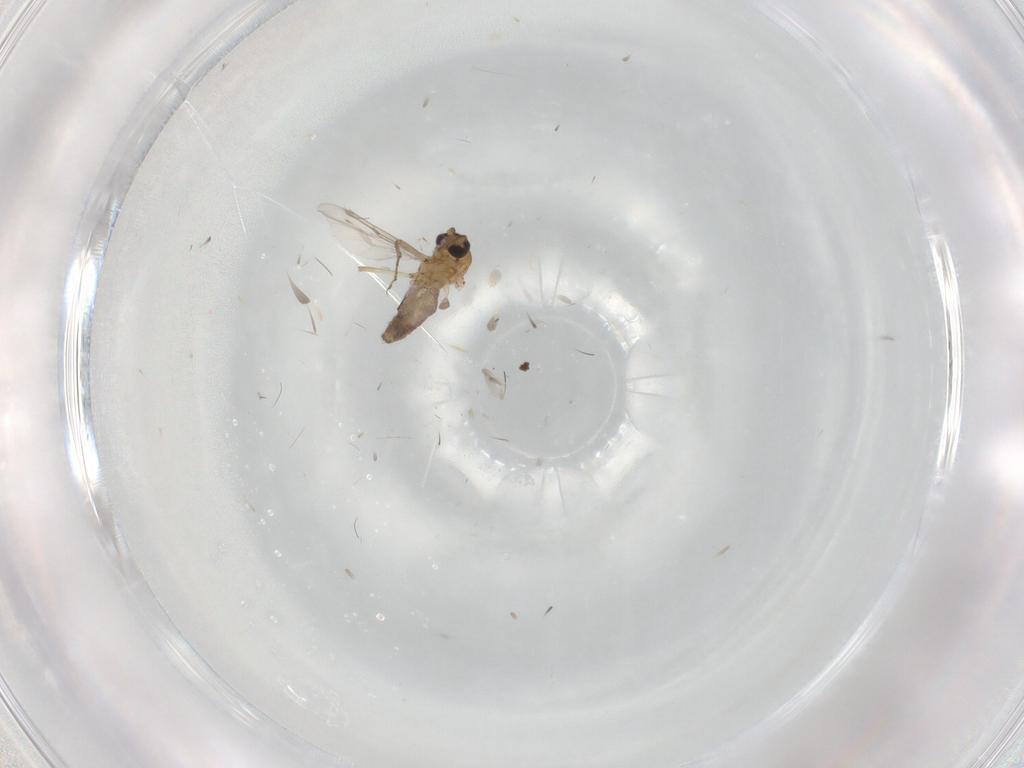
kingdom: Animalia
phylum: Arthropoda
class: Insecta
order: Diptera
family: Ceratopogonidae
